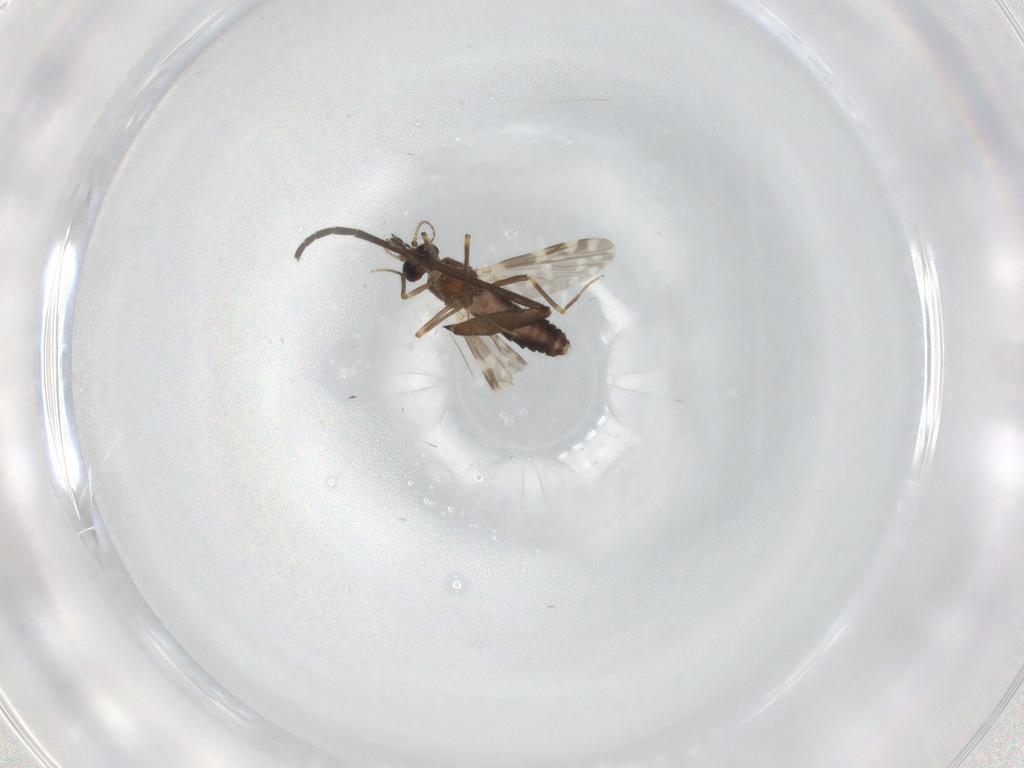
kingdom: Animalia
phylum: Arthropoda
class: Insecta
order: Diptera
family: Ceratopogonidae
